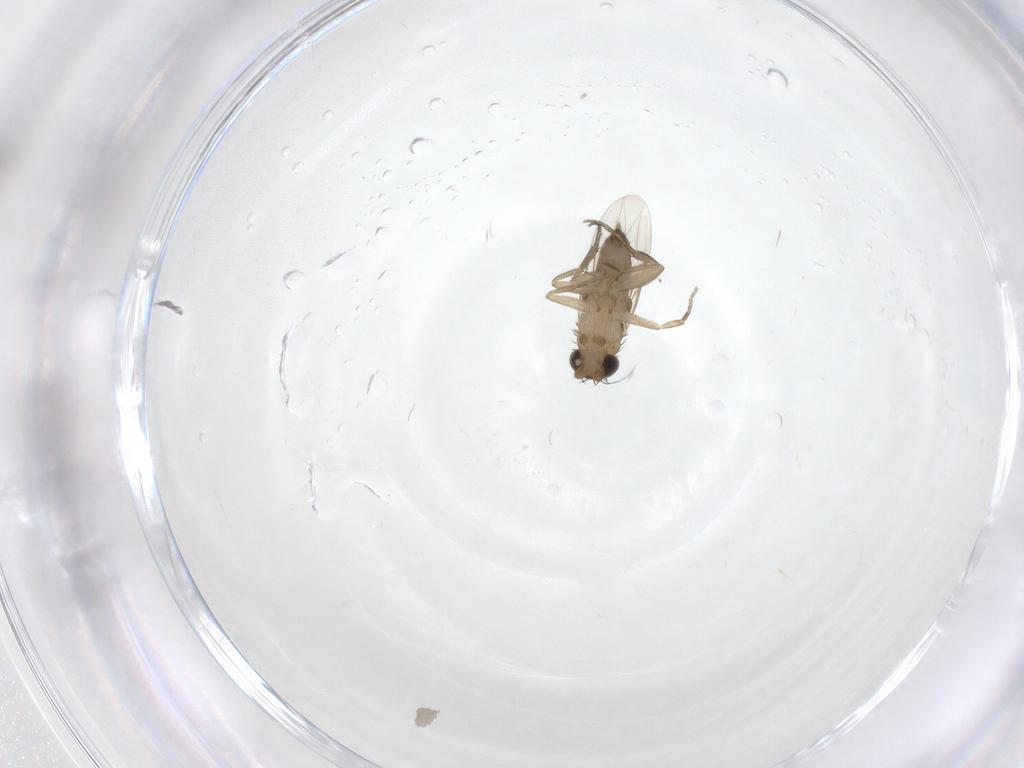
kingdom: Animalia
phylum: Arthropoda
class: Insecta
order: Diptera
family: Phoridae
